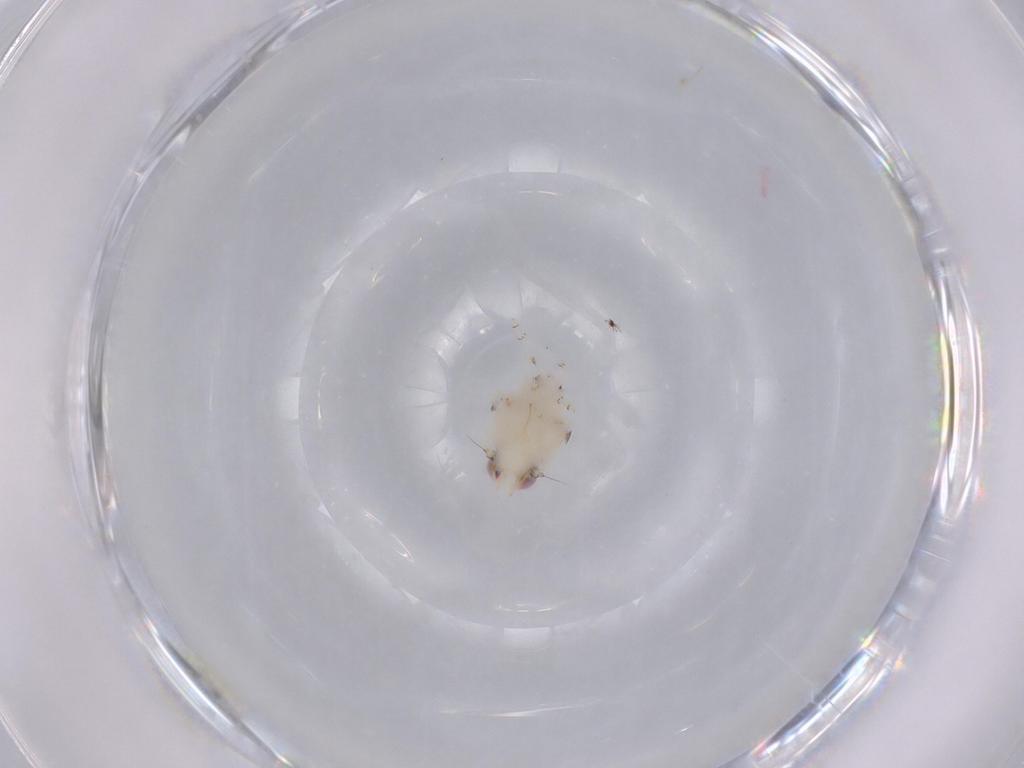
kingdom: Animalia
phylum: Arthropoda
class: Insecta
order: Hemiptera
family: Nogodinidae
